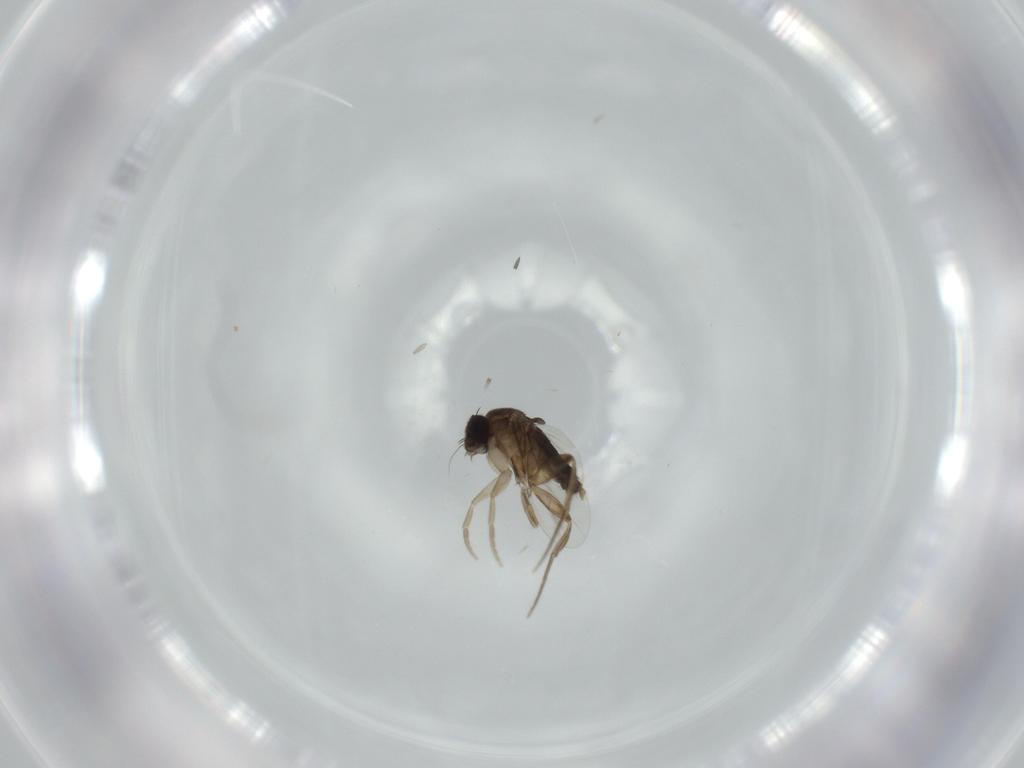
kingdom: Animalia
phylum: Arthropoda
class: Insecta
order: Diptera
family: Phoridae
